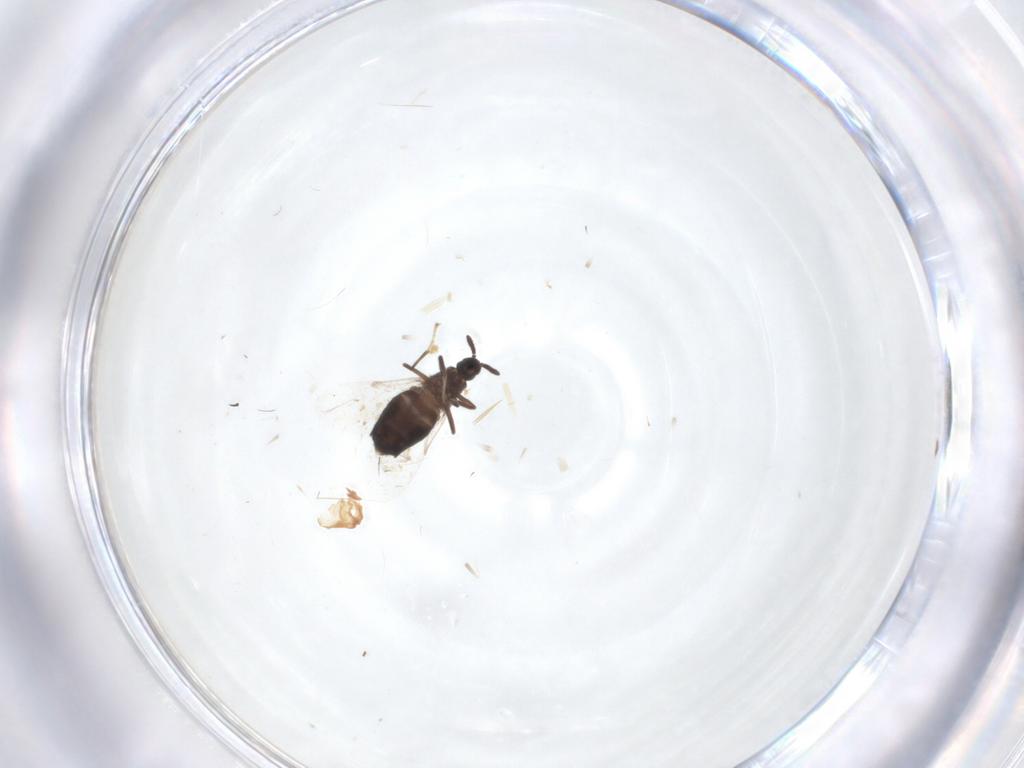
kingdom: Animalia
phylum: Arthropoda
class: Insecta
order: Diptera
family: Scatopsidae
